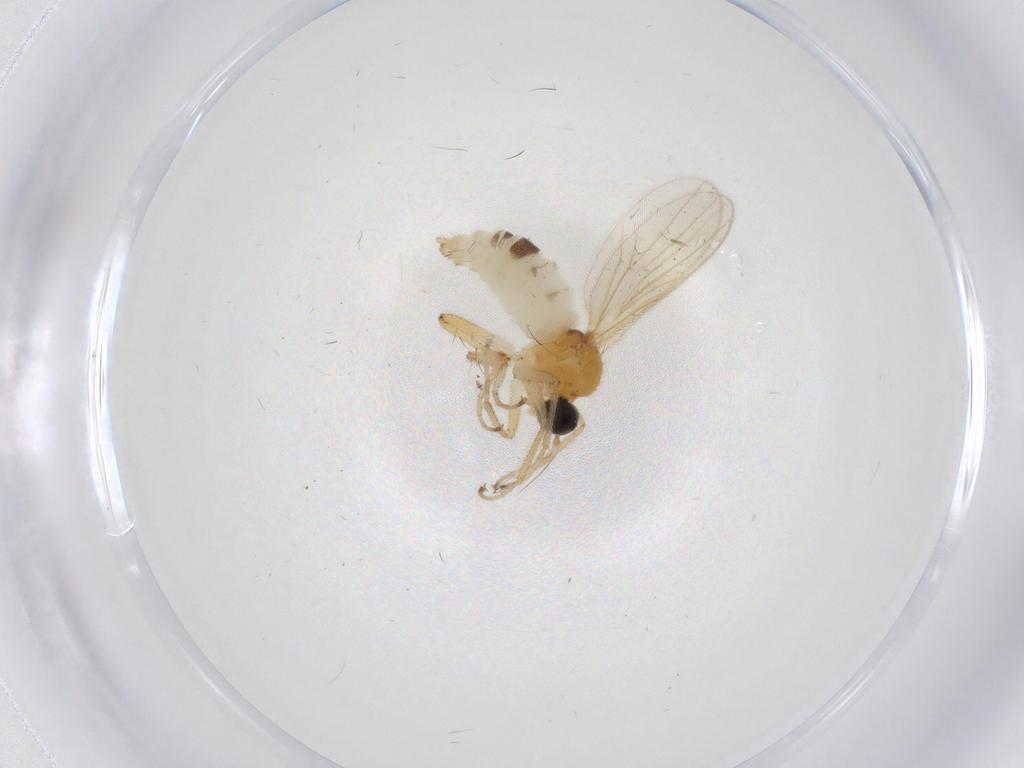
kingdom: Animalia
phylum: Arthropoda
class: Insecta
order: Diptera
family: Hybotidae
